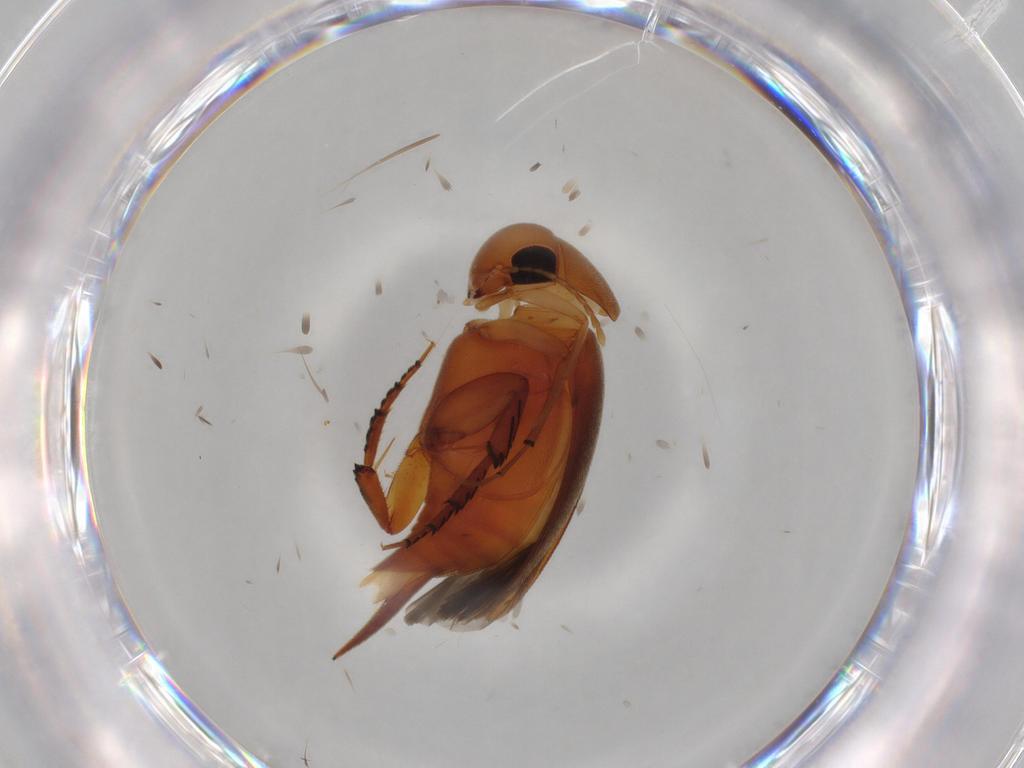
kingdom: Animalia
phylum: Arthropoda
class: Insecta
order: Coleoptera
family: Mordellidae
